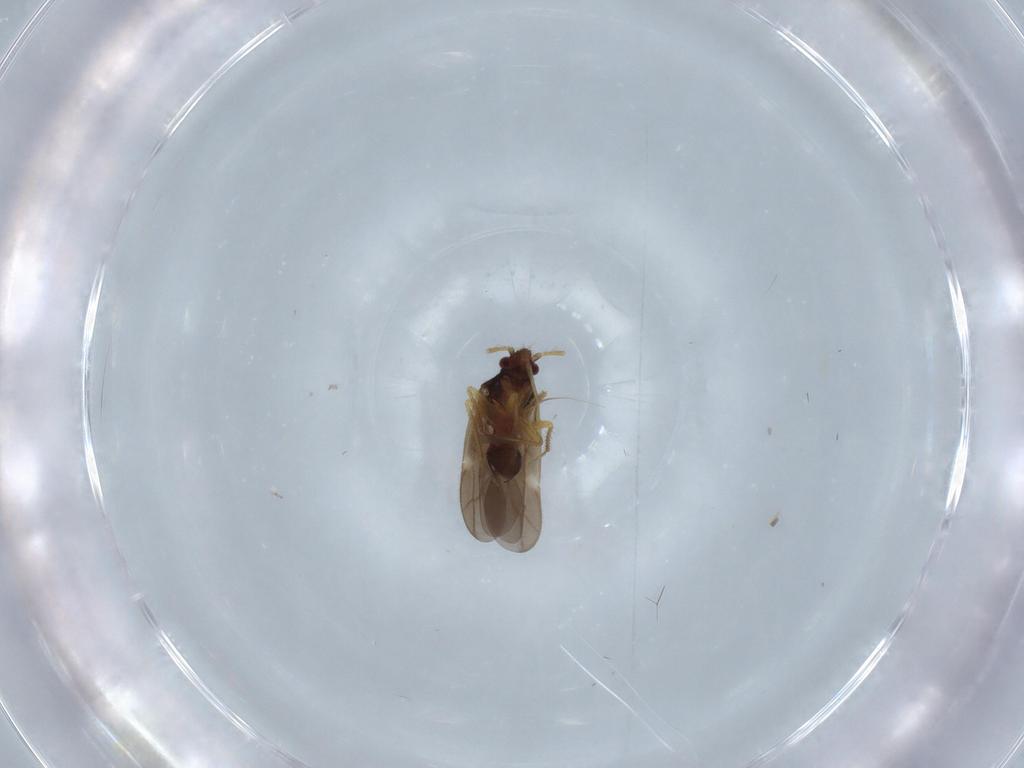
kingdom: Animalia
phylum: Arthropoda
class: Insecta
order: Hemiptera
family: Ceratocombidae
